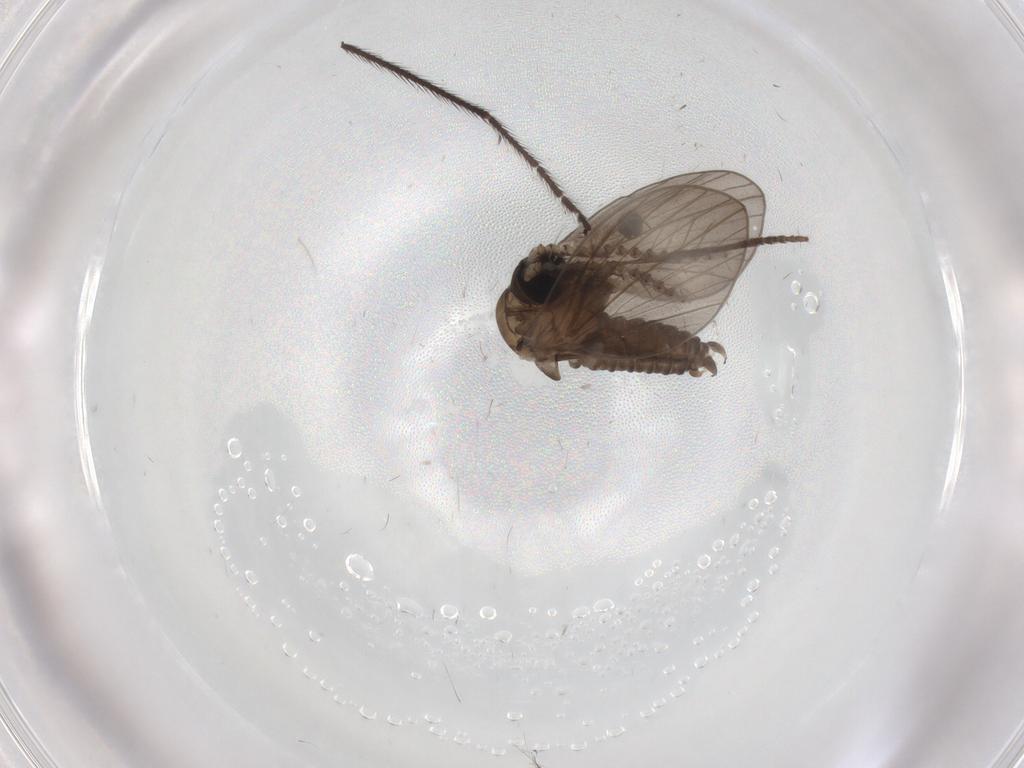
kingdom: Animalia
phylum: Arthropoda
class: Insecta
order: Diptera
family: Psychodidae
